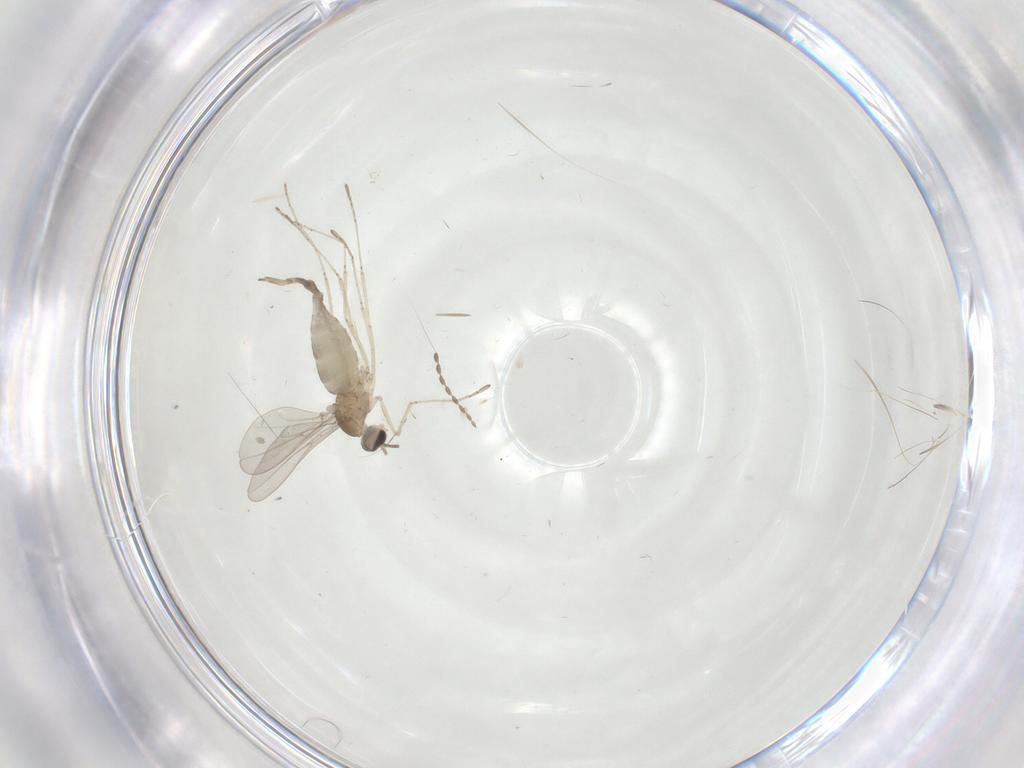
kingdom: Animalia
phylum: Arthropoda
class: Insecta
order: Diptera
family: Cecidomyiidae
